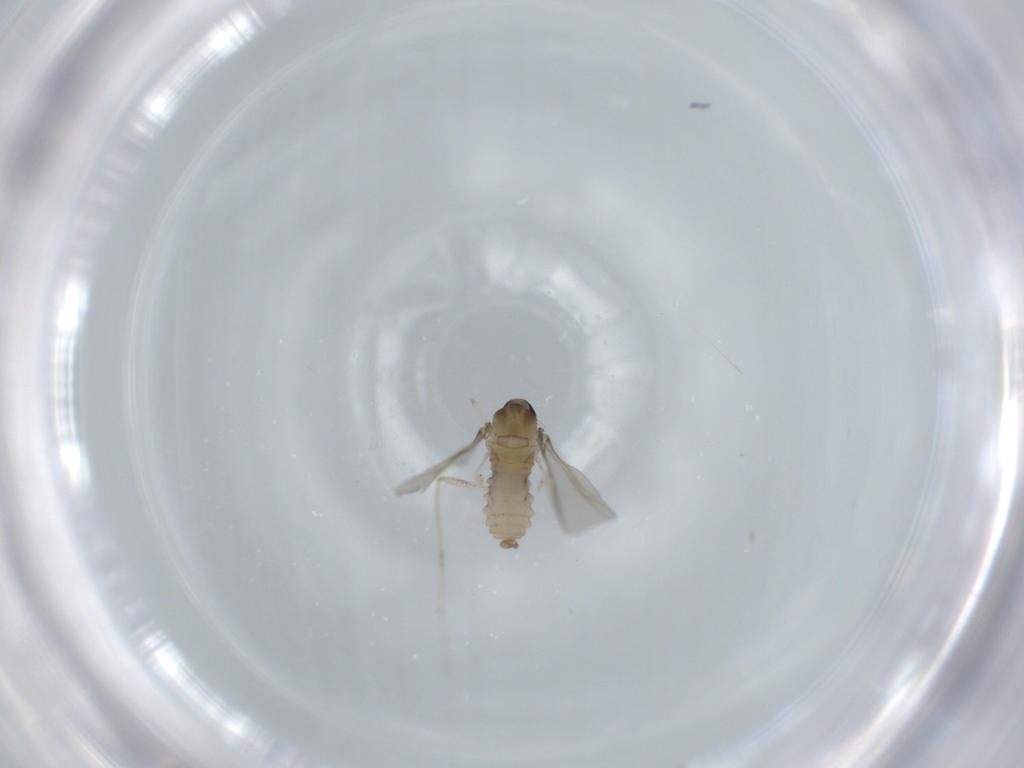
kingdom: Animalia
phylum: Arthropoda
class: Insecta
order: Diptera
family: Cecidomyiidae
